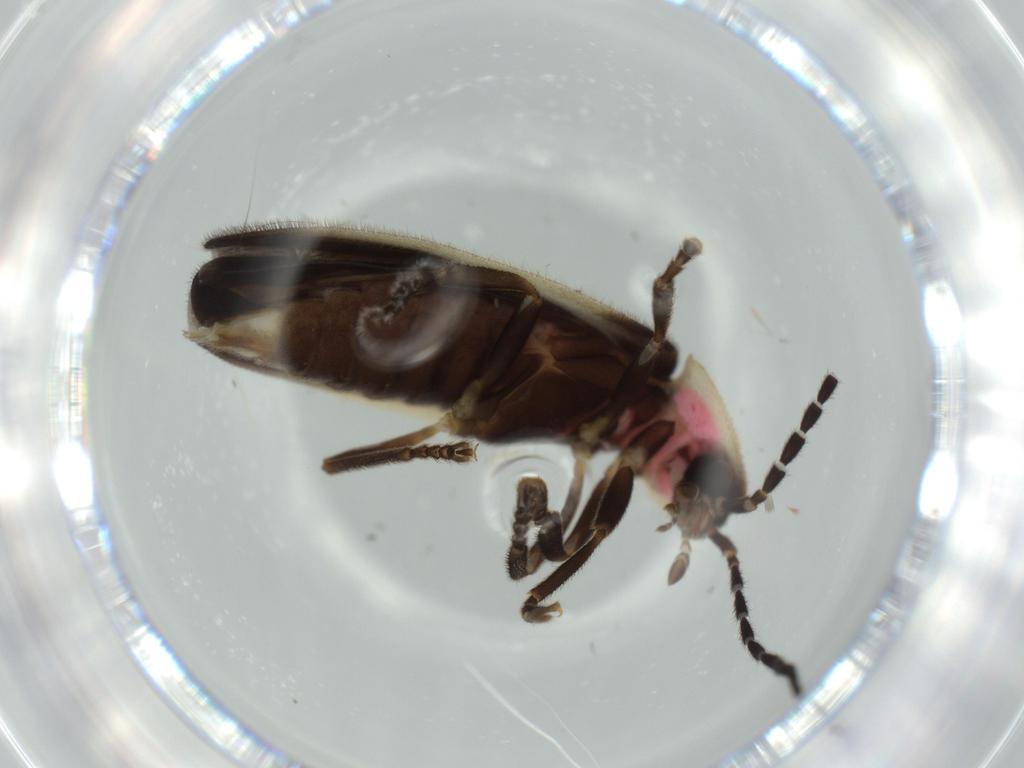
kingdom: Animalia
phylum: Arthropoda
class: Insecta
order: Coleoptera
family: Lampyridae
